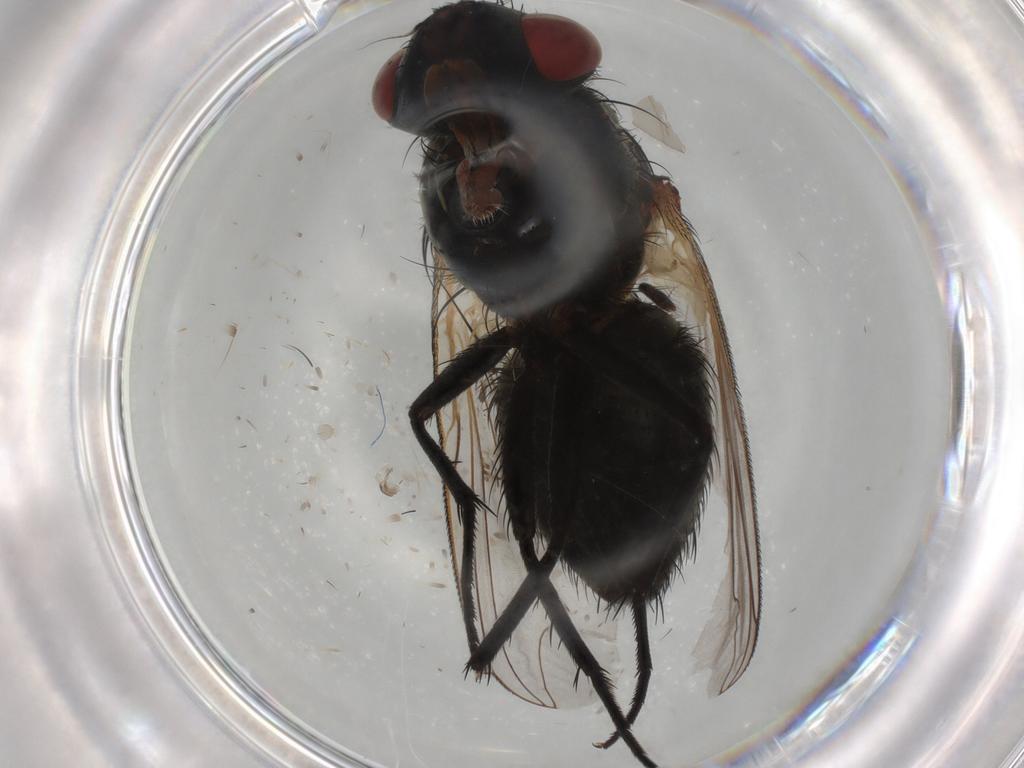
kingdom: Animalia
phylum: Arthropoda
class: Insecta
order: Diptera
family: Sarcophagidae
